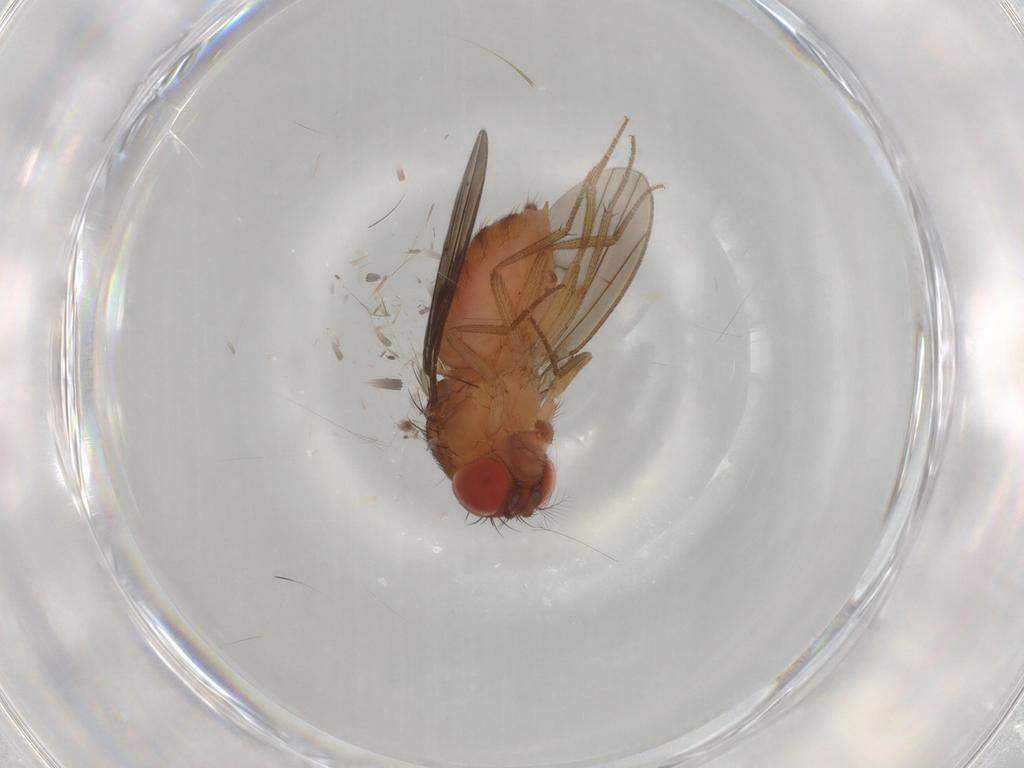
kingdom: Animalia
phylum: Arthropoda
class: Insecta
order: Diptera
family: Drosophilidae
